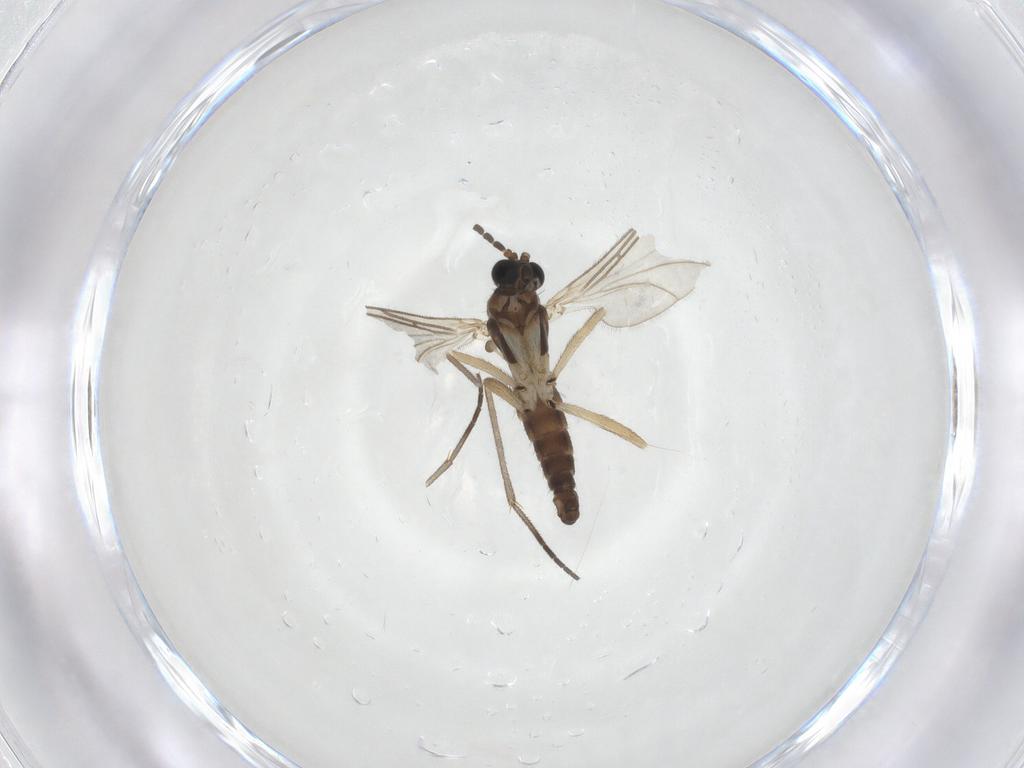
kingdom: Animalia
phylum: Arthropoda
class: Insecta
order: Diptera
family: Sciaridae
